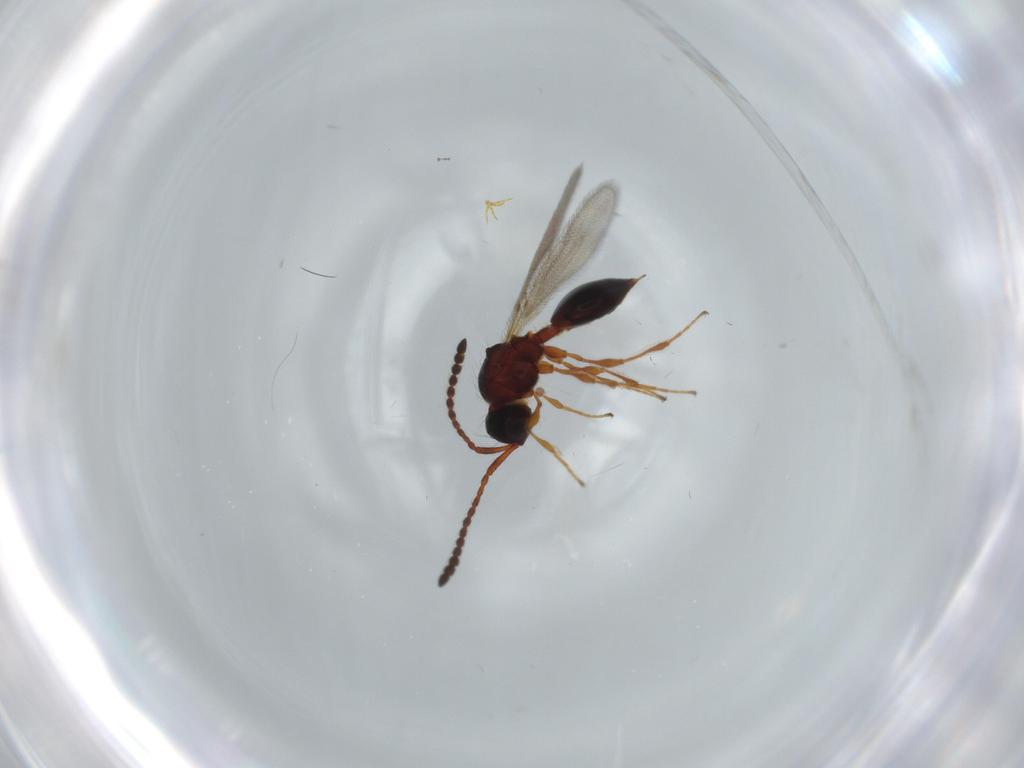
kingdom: Animalia
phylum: Arthropoda
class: Insecta
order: Hymenoptera
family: Diapriidae
